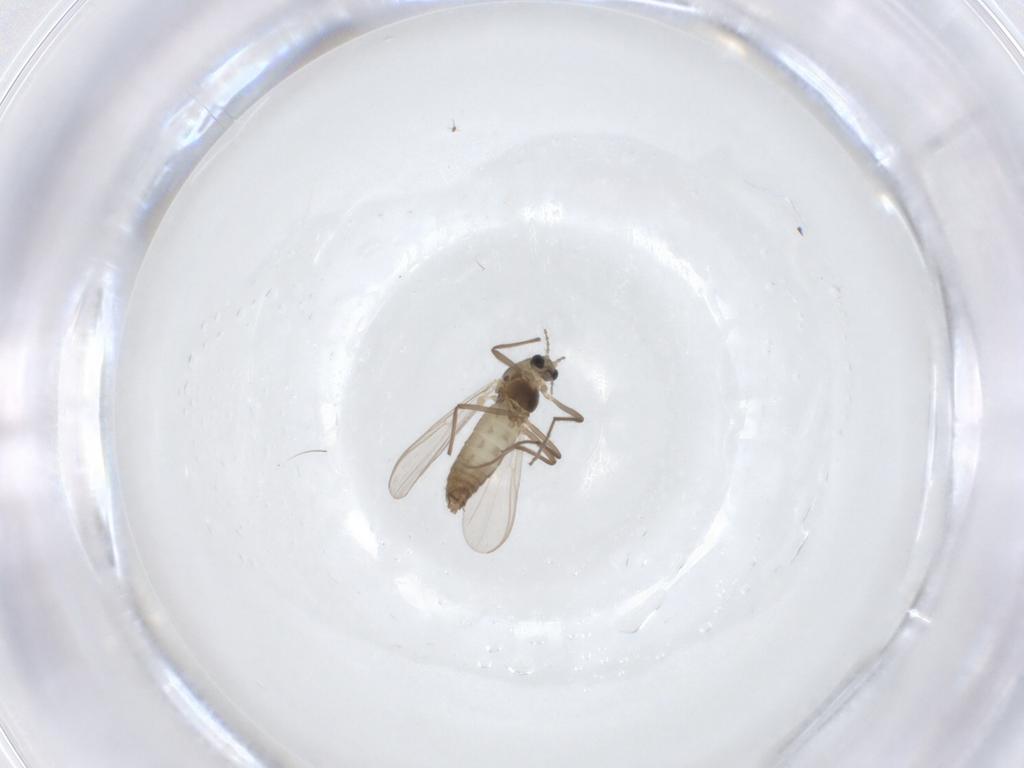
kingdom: Animalia
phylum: Arthropoda
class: Insecta
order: Diptera
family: Chironomidae
